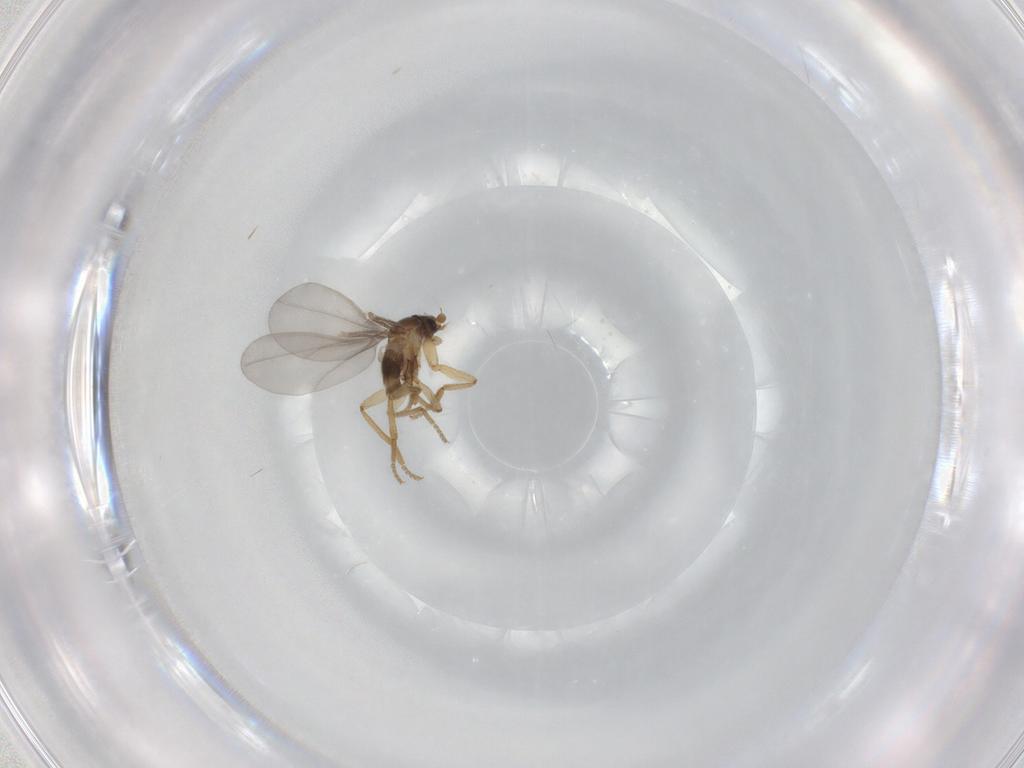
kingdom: Animalia
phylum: Arthropoda
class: Insecta
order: Diptera
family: Phoridae
